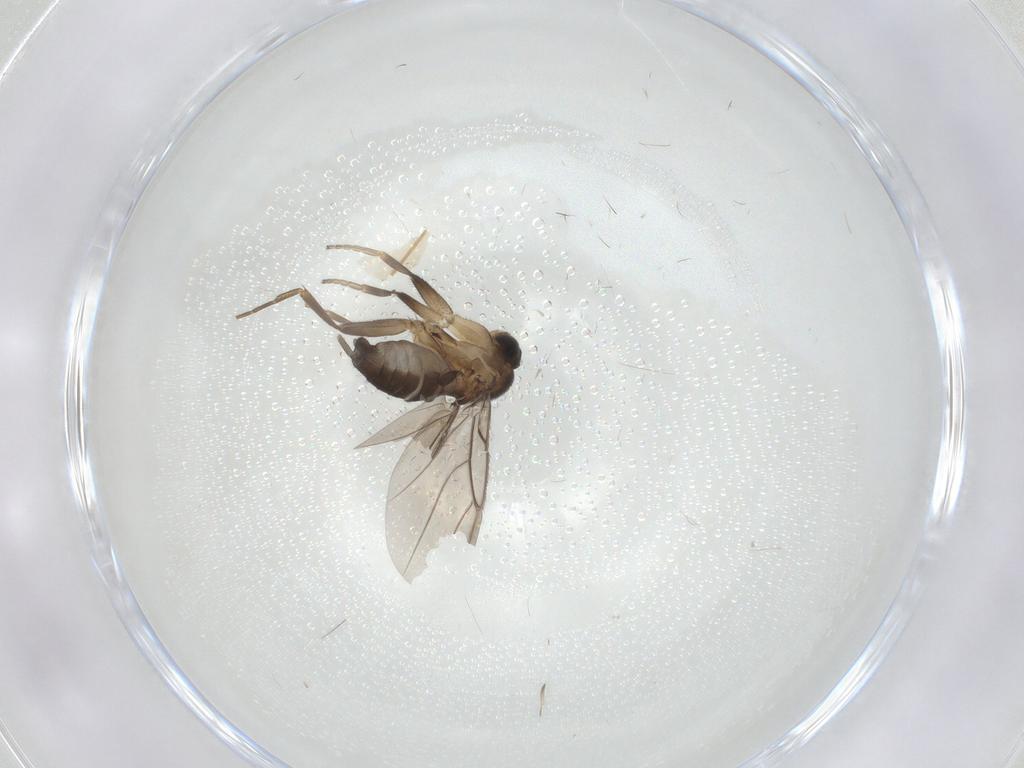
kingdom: Animalia
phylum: Arthropoda
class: Insecta
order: Diptera
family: Phoridae
